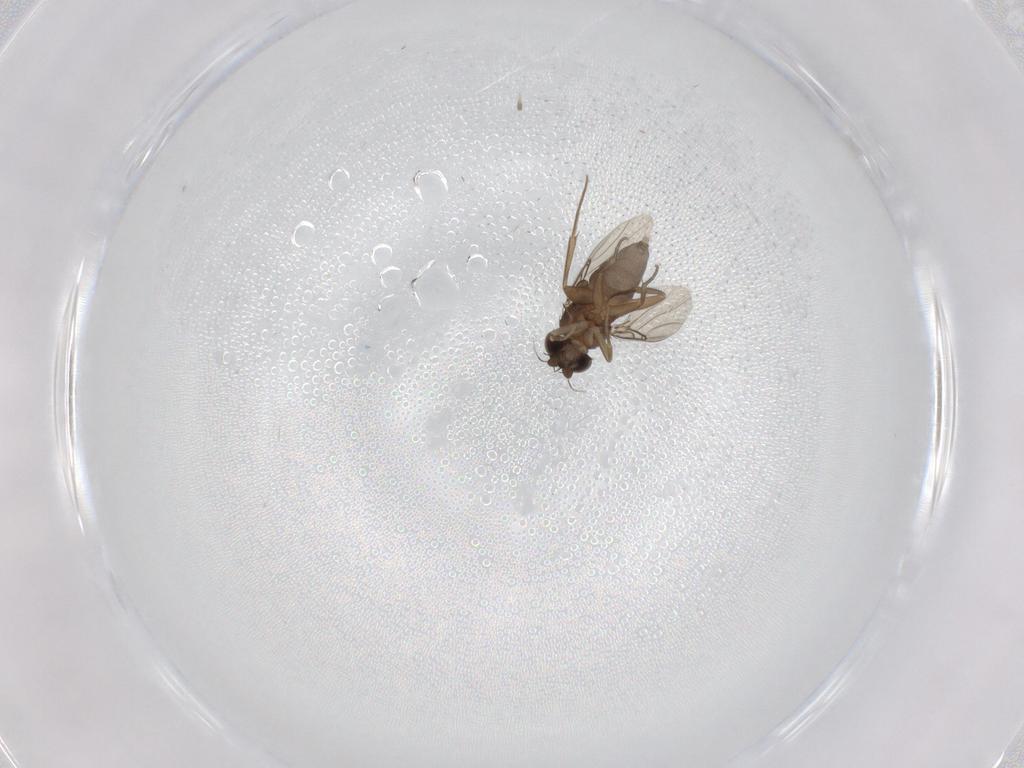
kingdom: Animalia
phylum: Arthropoda
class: Insecta
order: Diptera
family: Phoridae
